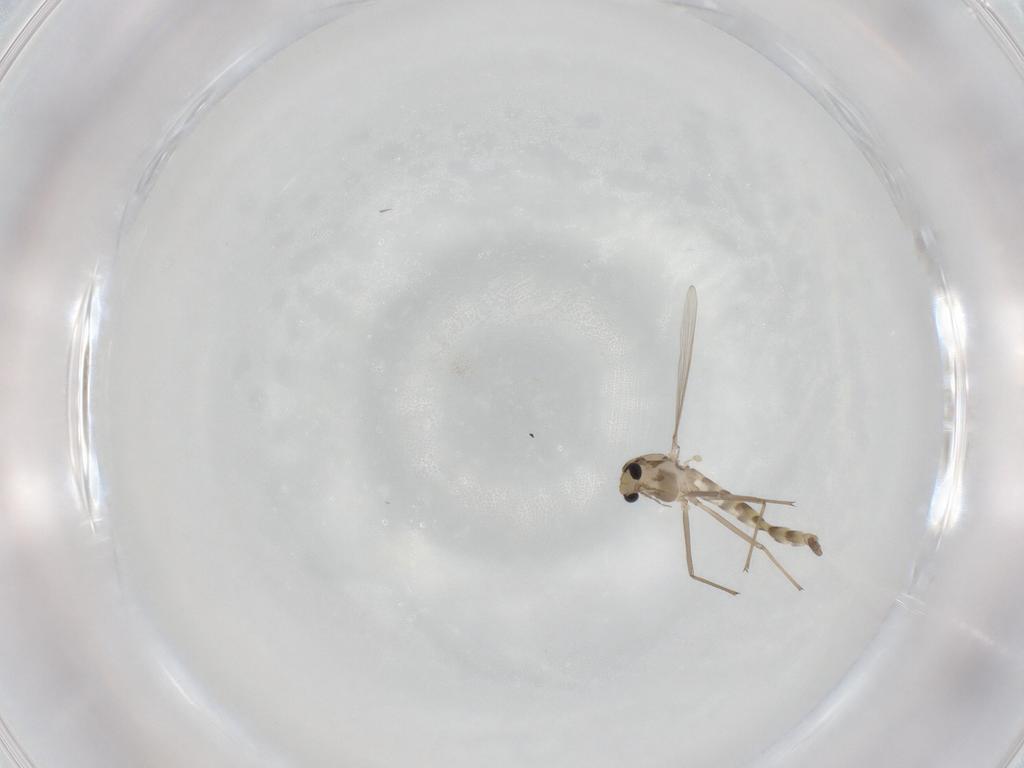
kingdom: Animalia
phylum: Arthropoda
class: Insecta
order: Diptera
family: Chironomidae
